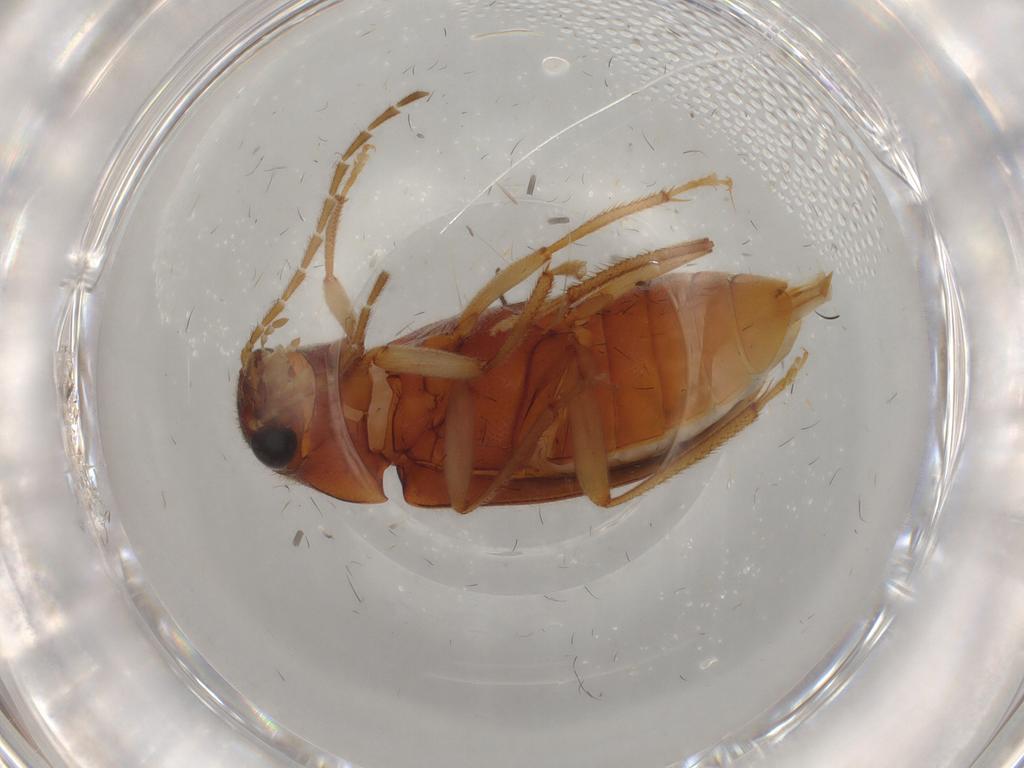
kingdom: Animalia
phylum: Arthropoda
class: Insecta
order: Coleoptera
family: Ptilodactylidae
